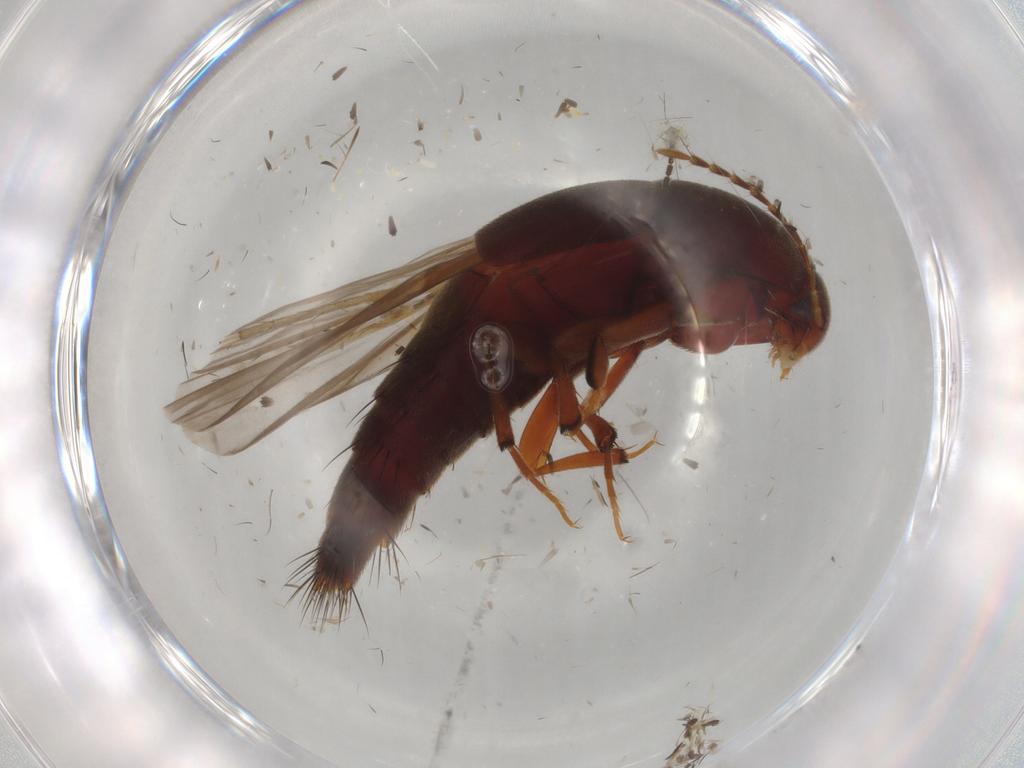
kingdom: Animalia
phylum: Arthropoda
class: Insecta
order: Coleoptera
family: Staphylinidae
